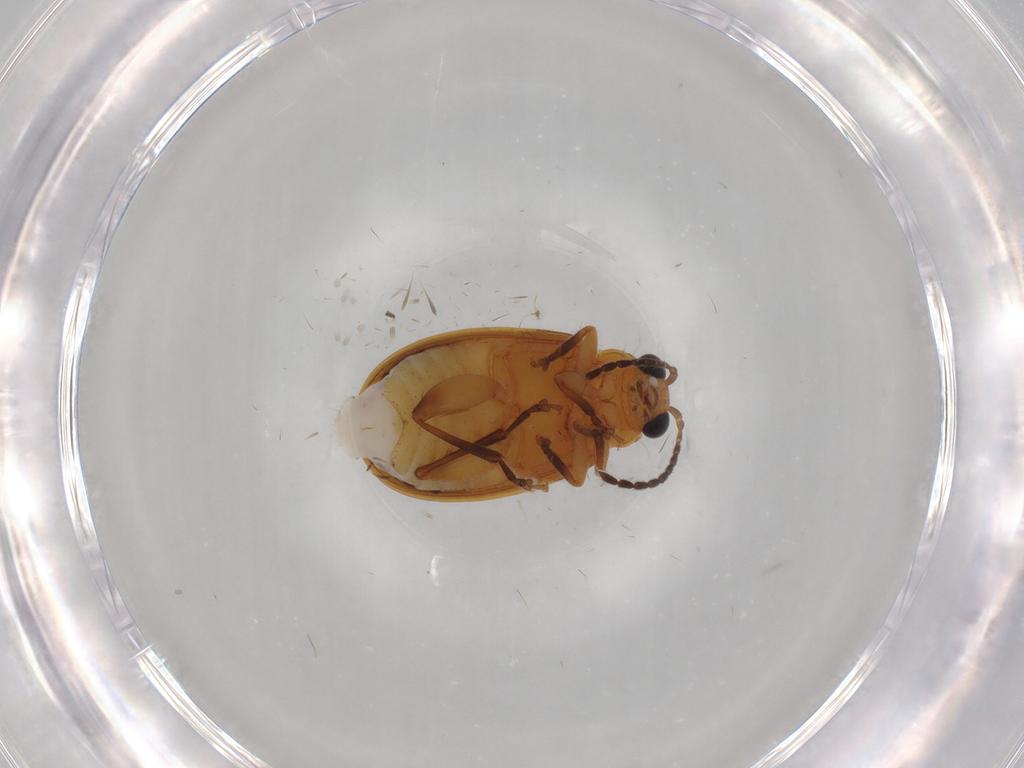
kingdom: Animalia
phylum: Arthropoda
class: Insecta
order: Coleoptera
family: Chrysomelidae
